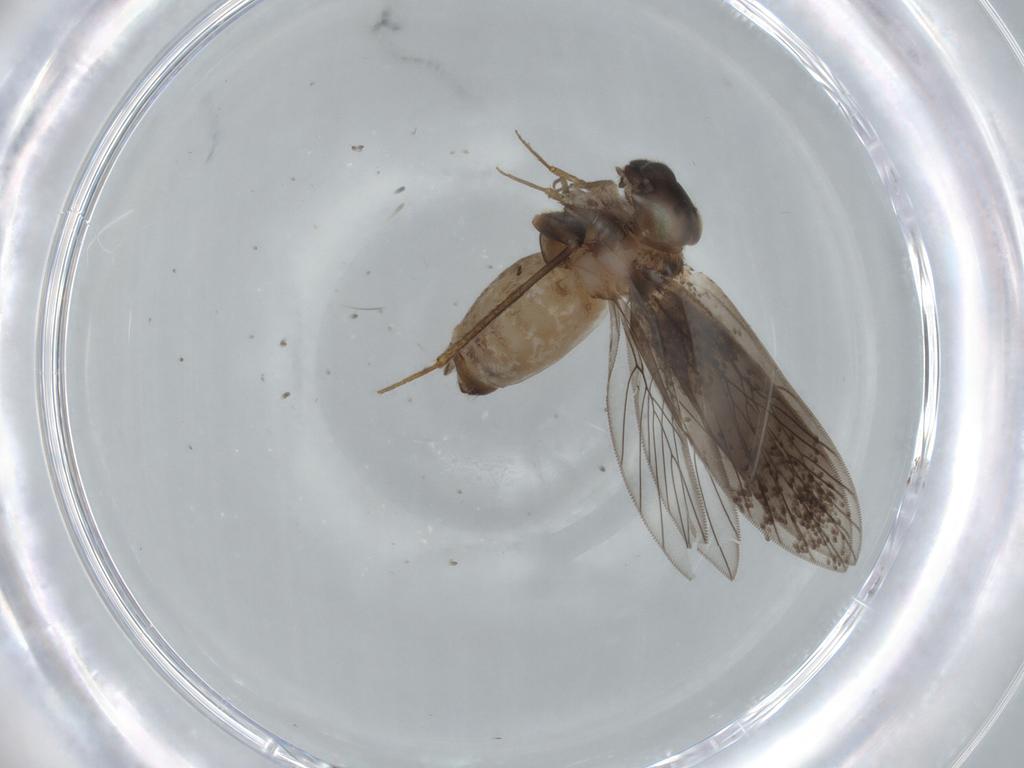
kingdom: Animalia
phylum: Arthropoda
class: Insecta
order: Psocodea
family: Lepidopsocidae
